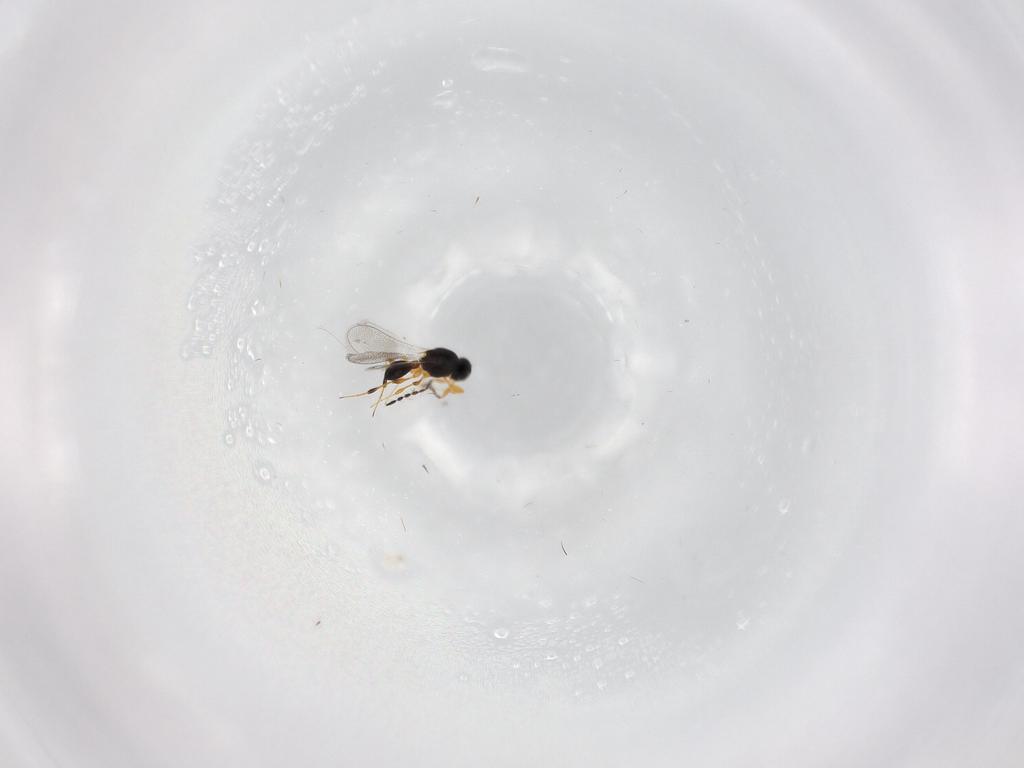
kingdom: Animalia
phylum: Arthropoda
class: Insecta
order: Hymenoptera
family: Platygastridae
